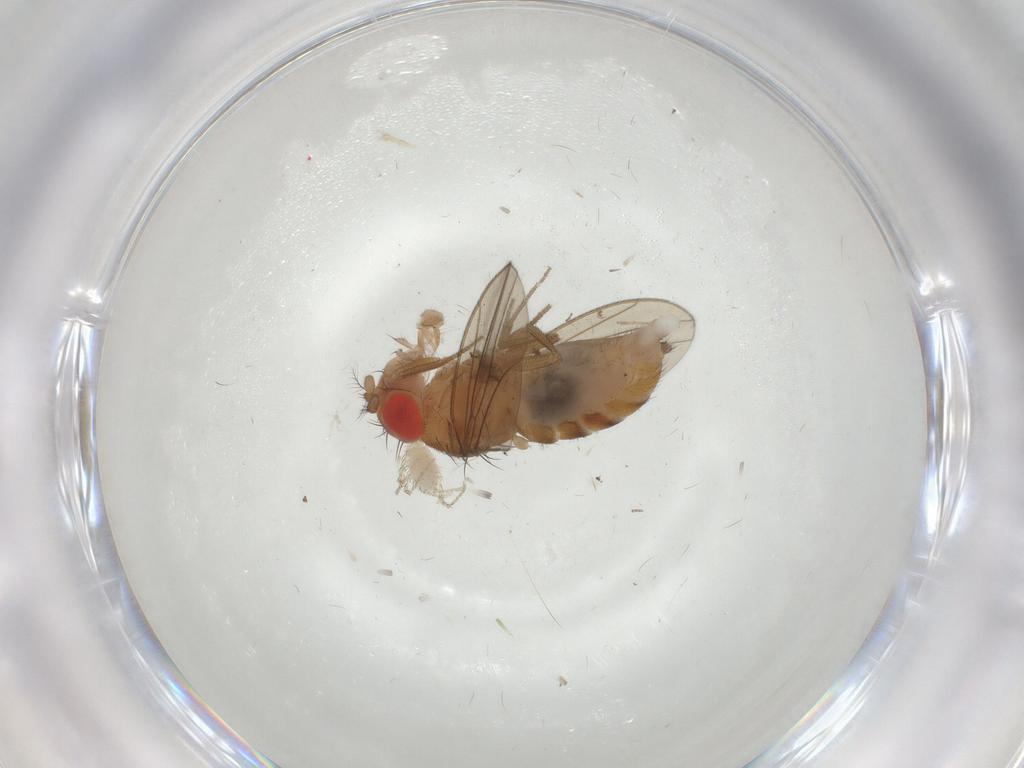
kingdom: Animalia
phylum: Arthropoda
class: Insecta
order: Diptera
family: Drosophilidae
